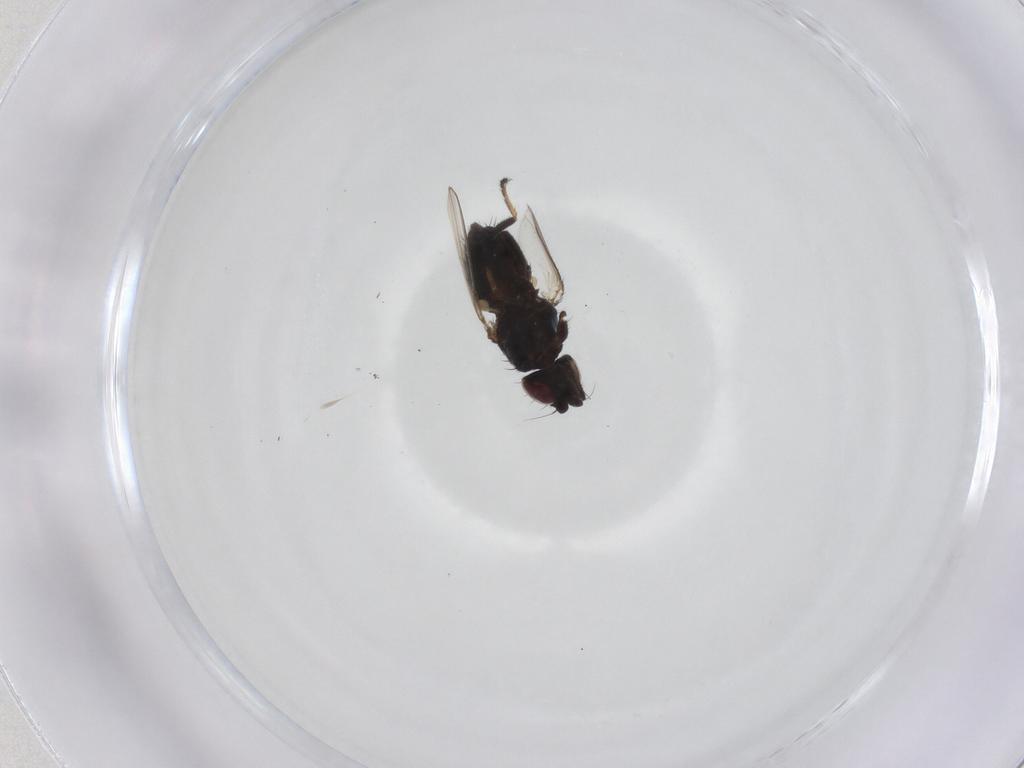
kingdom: Animalia
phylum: Arthropoda
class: Insecta
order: Diptera
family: Milichiidae
